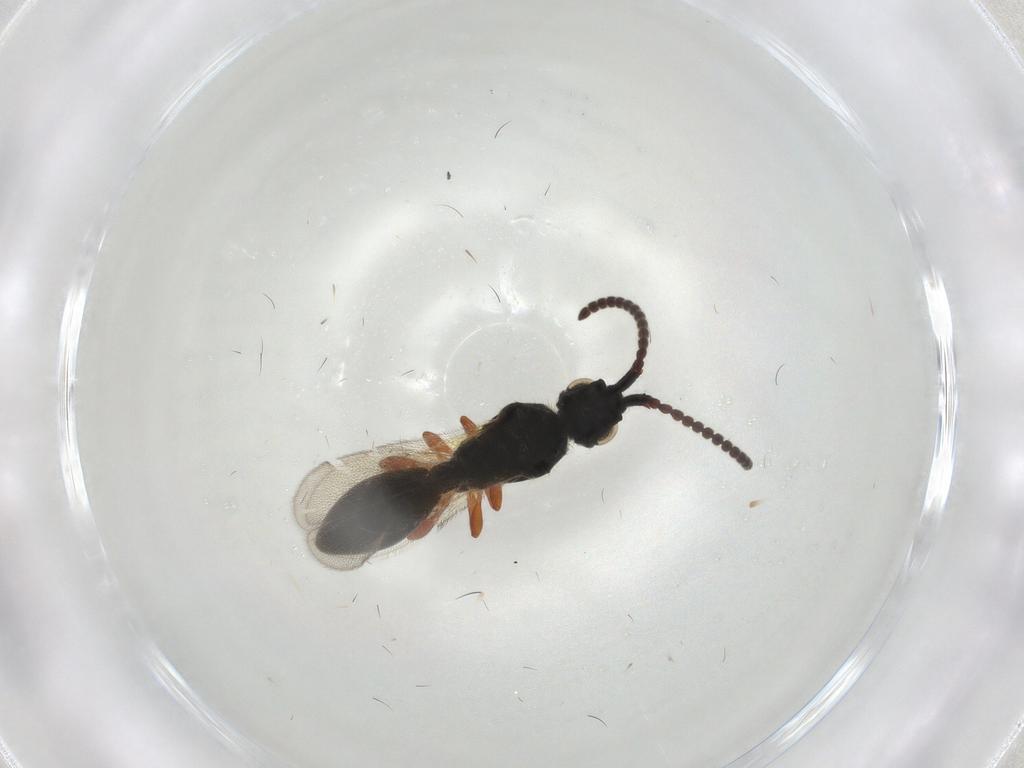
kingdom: Animalia
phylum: Arthropoda
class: Insecta
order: Hymenoptera
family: Diapriidae
